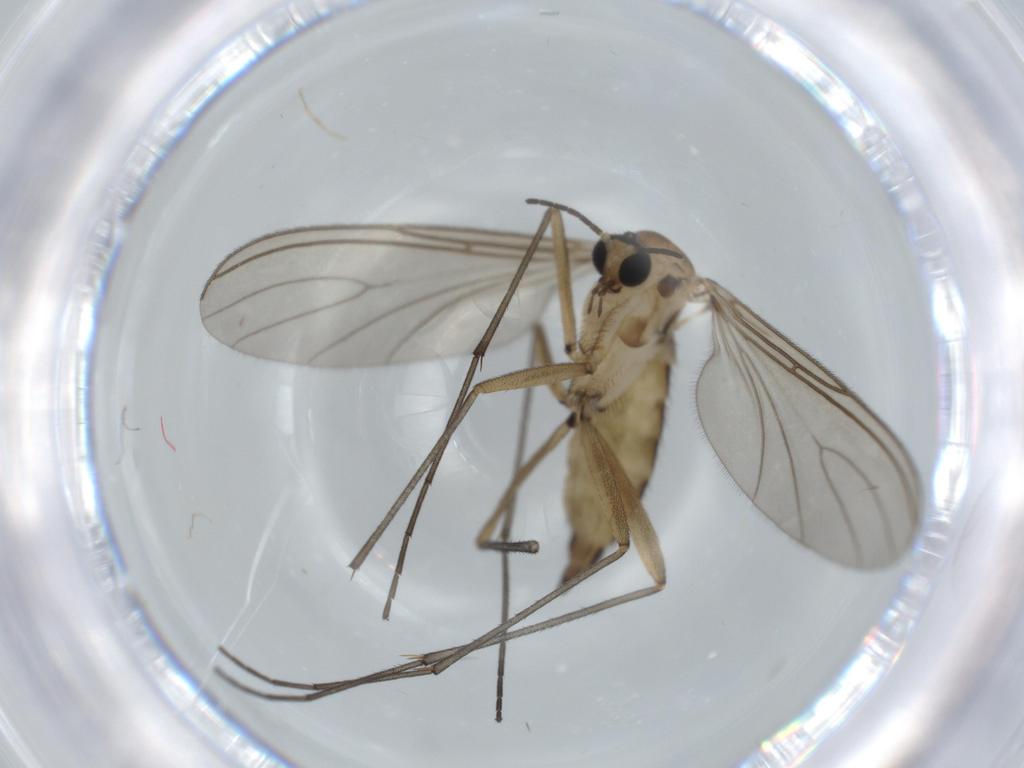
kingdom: Animalia
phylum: Arthropoda
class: Insecta
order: Diptera
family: Sciaridae
